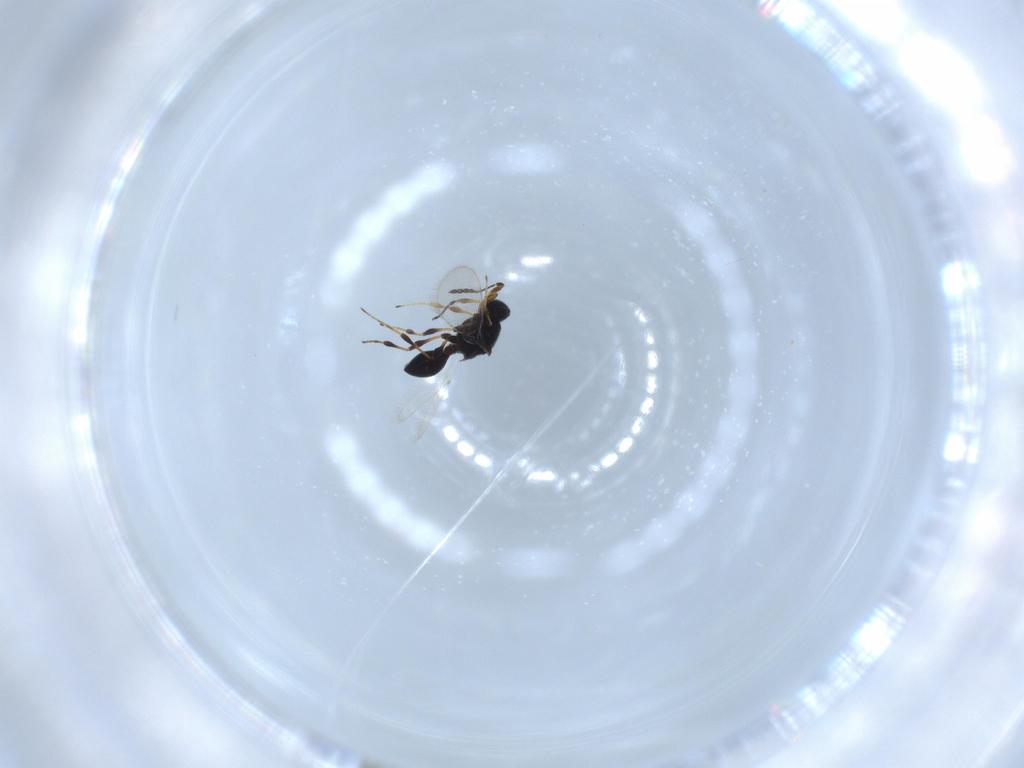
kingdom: Animalia
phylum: Arthropoda
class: Insecta
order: Hymenoptera
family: Platygastridae
